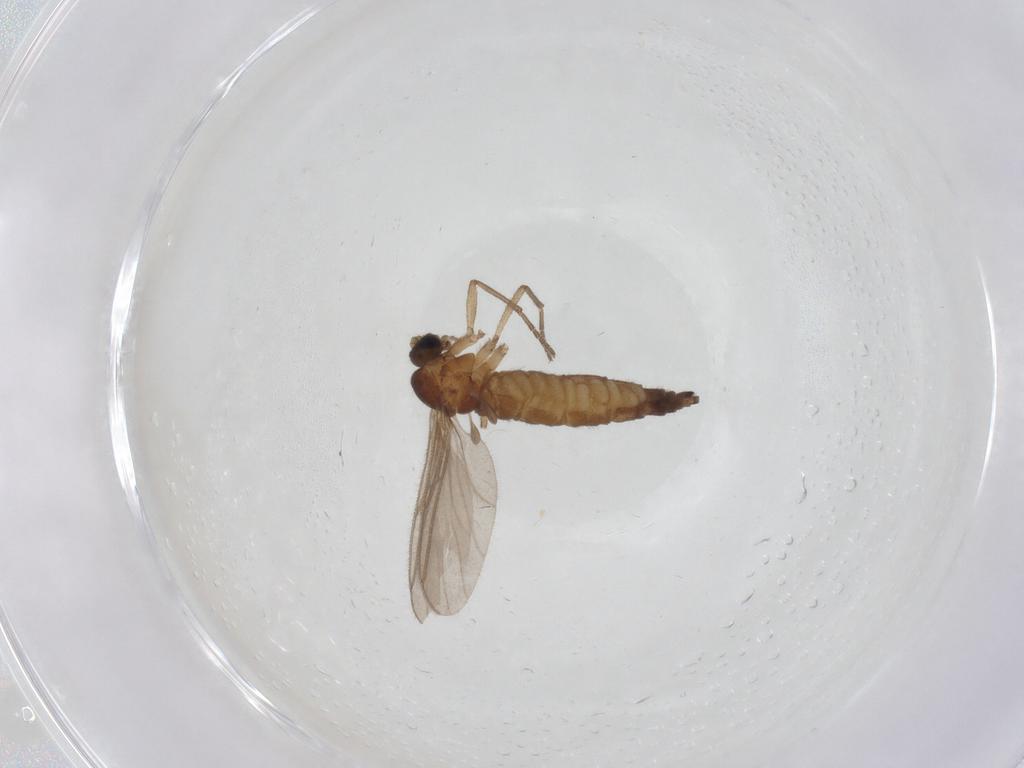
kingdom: Animalia
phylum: Arthropoda
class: Insecta
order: Diptera
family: Sciaridae
